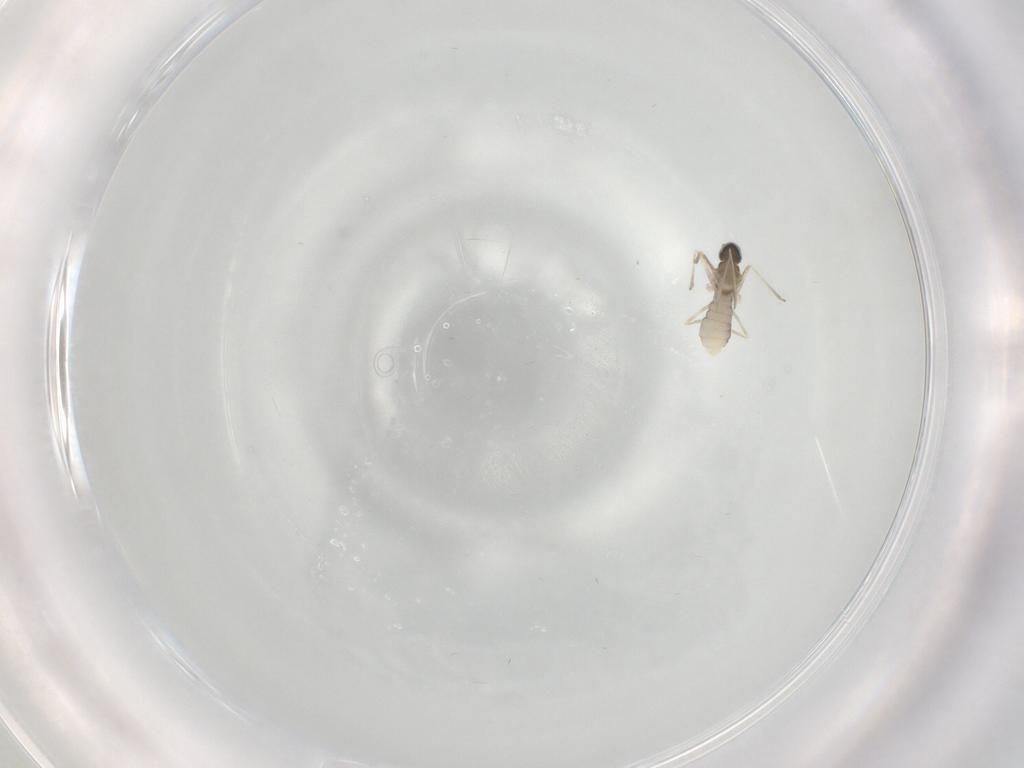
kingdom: Animalia
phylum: Arthropoda
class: Insecta
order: Diptera
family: Cecidomyiidae
